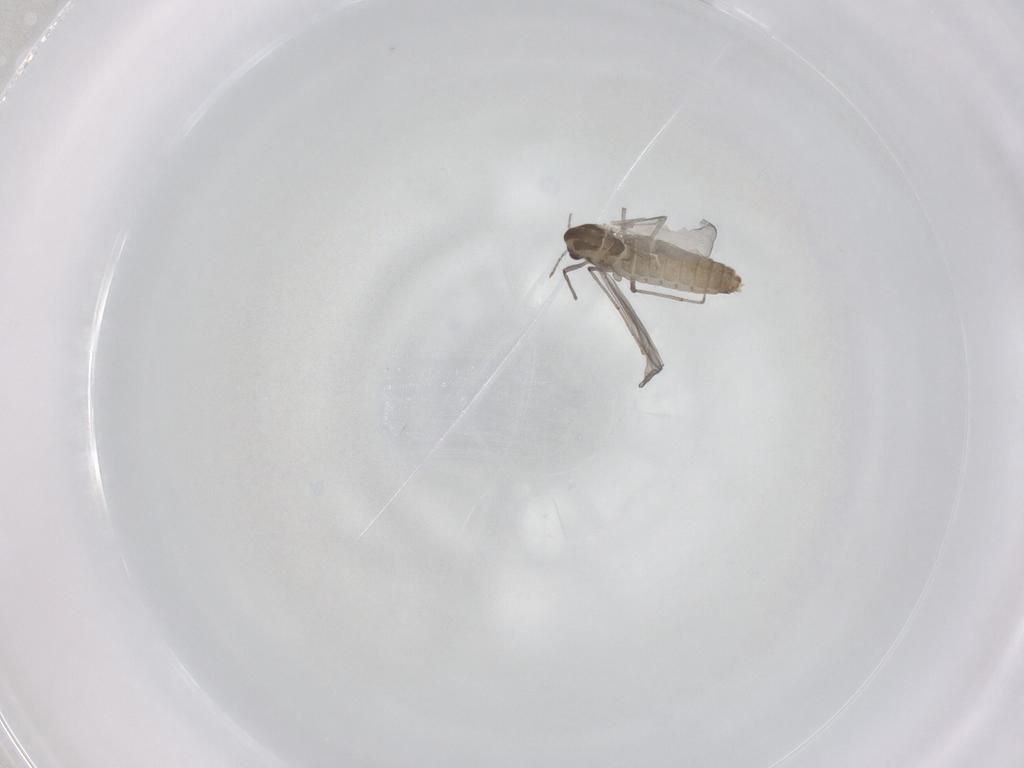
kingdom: Animalia
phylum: Arthropoda
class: Insecta
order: Diptera
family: Chironomidae
